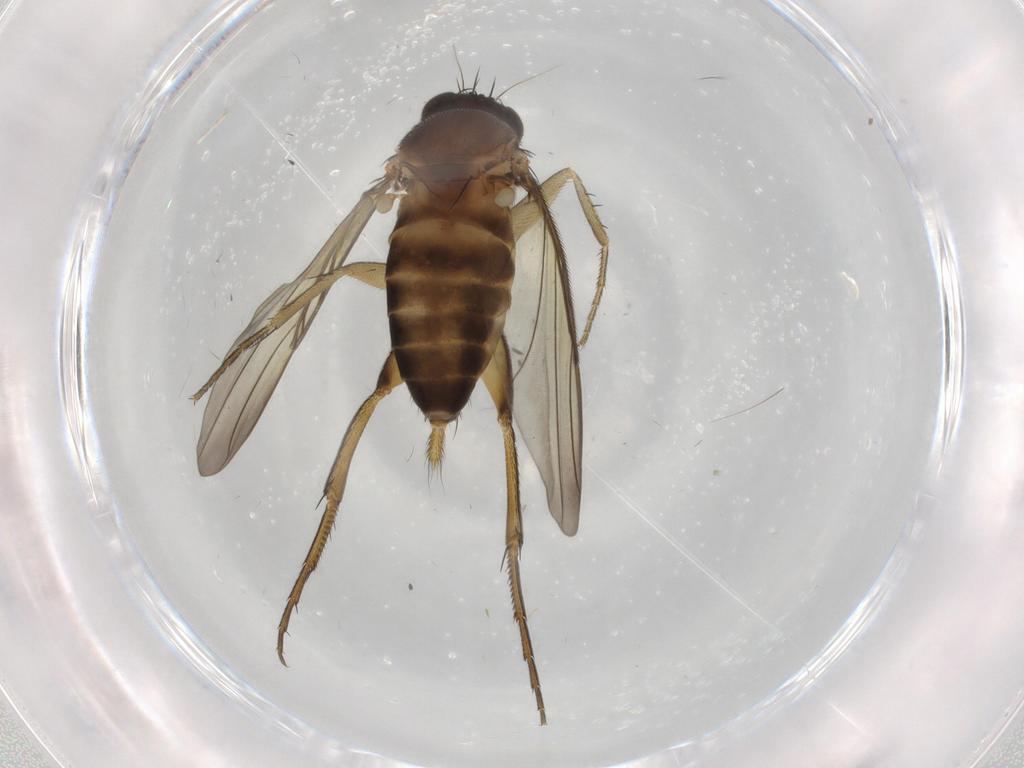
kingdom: Animalia
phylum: Arthropoda
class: Insecta
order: Diptera
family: Phoridae
